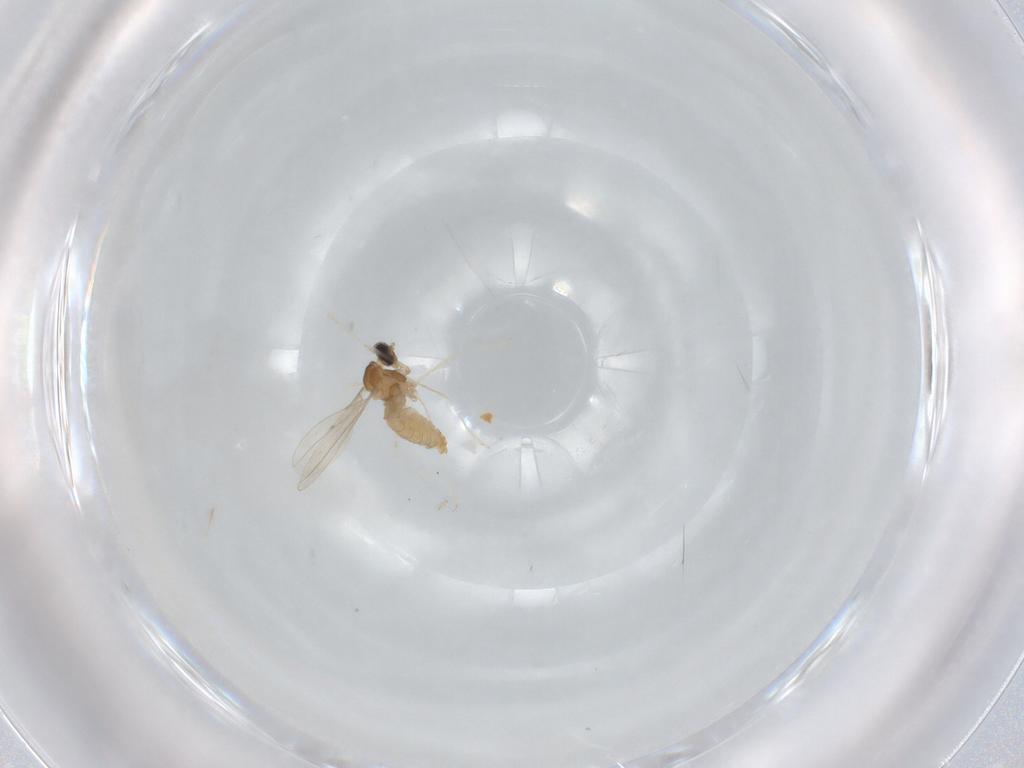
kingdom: Animalia
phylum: Arthropoda
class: Insecta
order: Diptera
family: Cecidomyiidae
